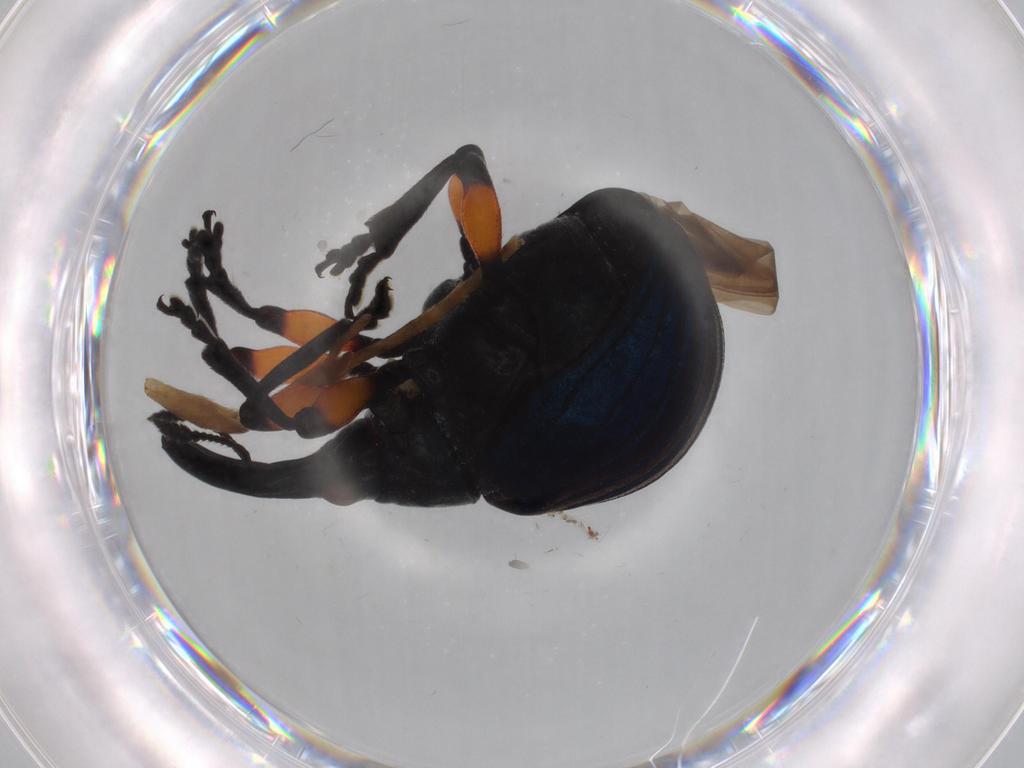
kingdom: Animalia
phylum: Arthropoda
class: Insecta
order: Coleoptera
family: Brentidae
